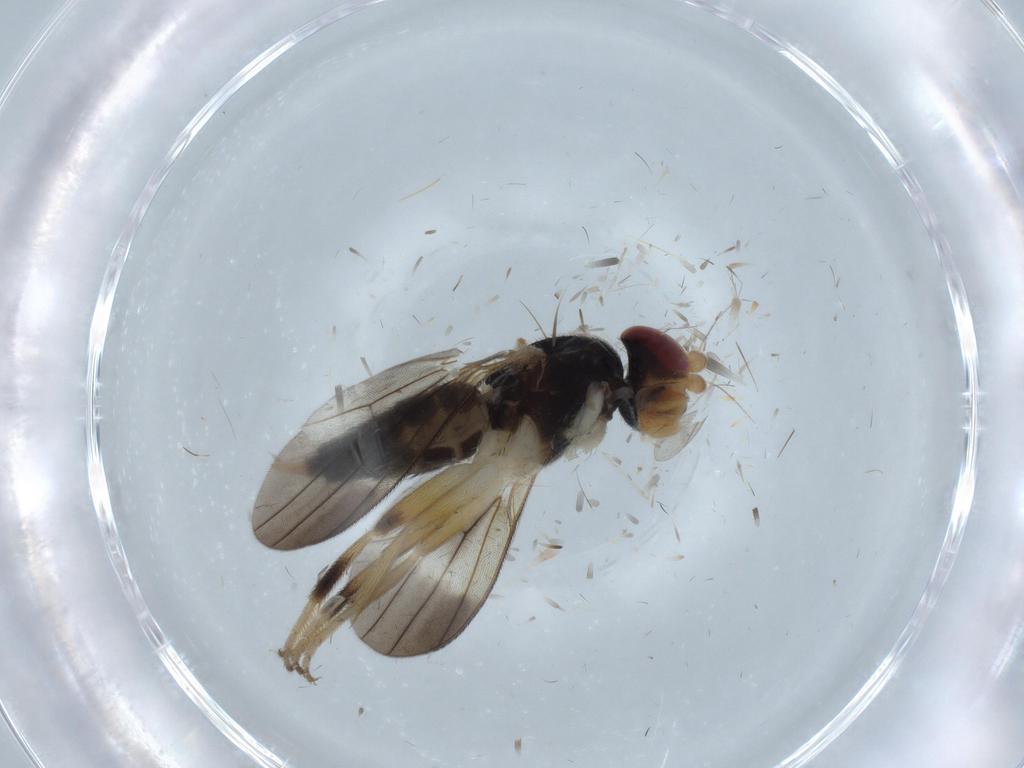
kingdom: Animalia
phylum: Arthropoda
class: Insecta
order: Diptera
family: Clusiidae
